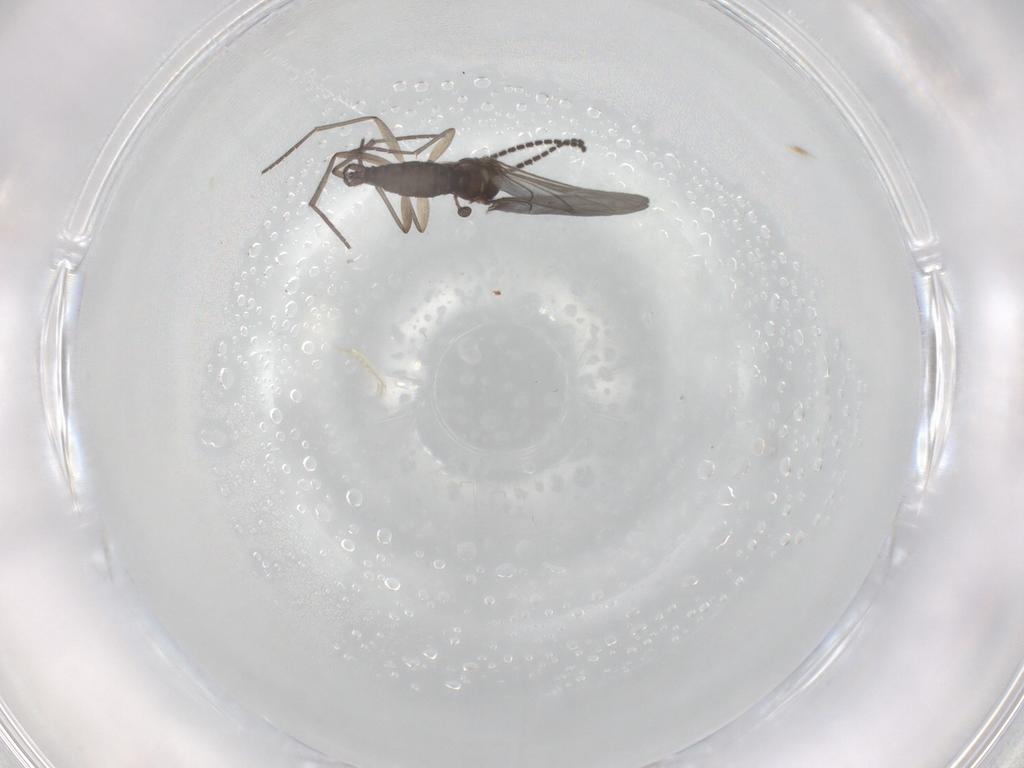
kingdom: Animalia
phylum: Arthropoda
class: Insecta
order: Diptera
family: Sciaridae
